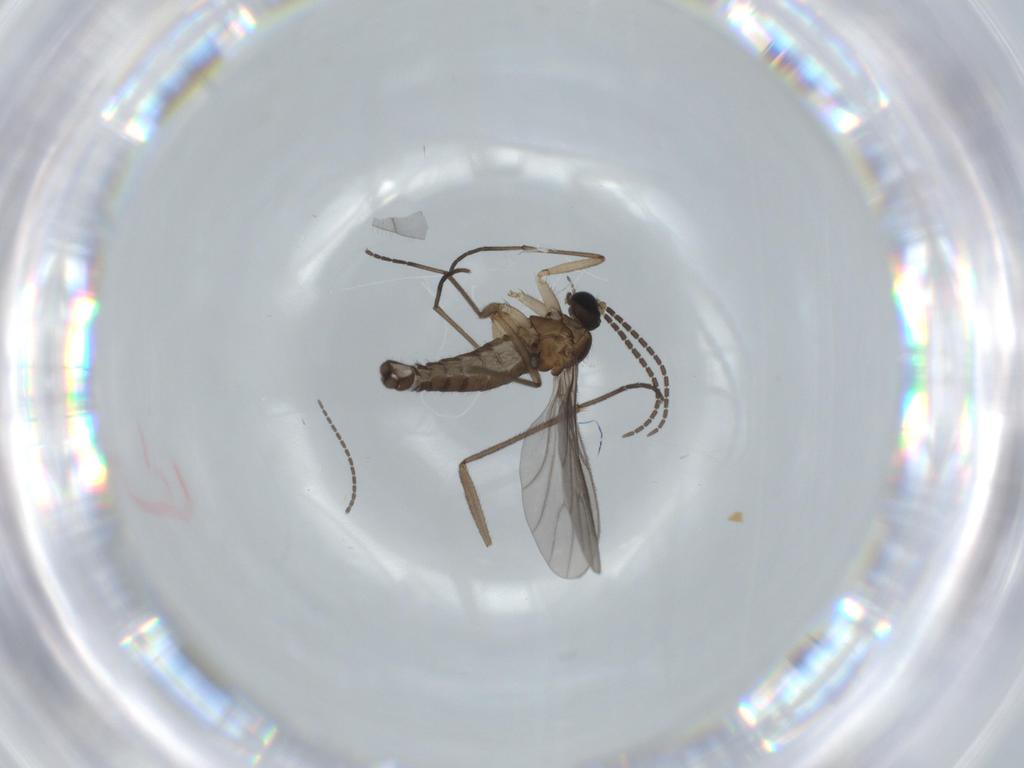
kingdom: Animalia
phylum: Arthropoda
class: Insecta
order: Diptera
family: Sciaridae
